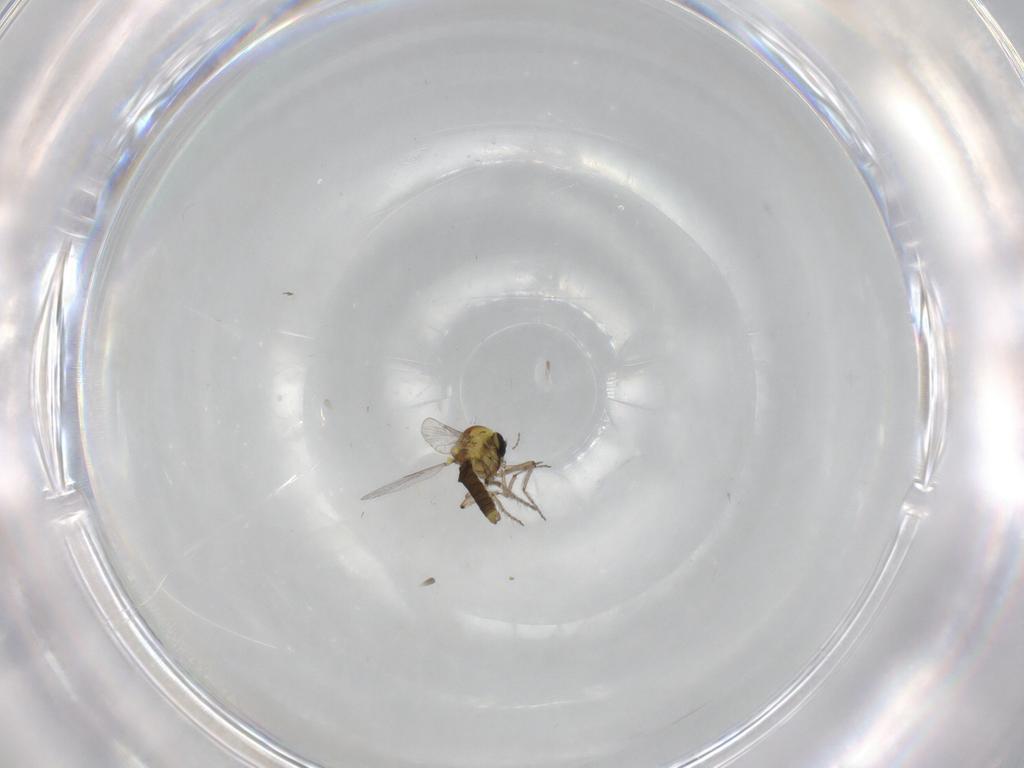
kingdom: Animalia
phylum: Arthropoda
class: Insecta
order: Diptera
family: Ceratopogonidae
